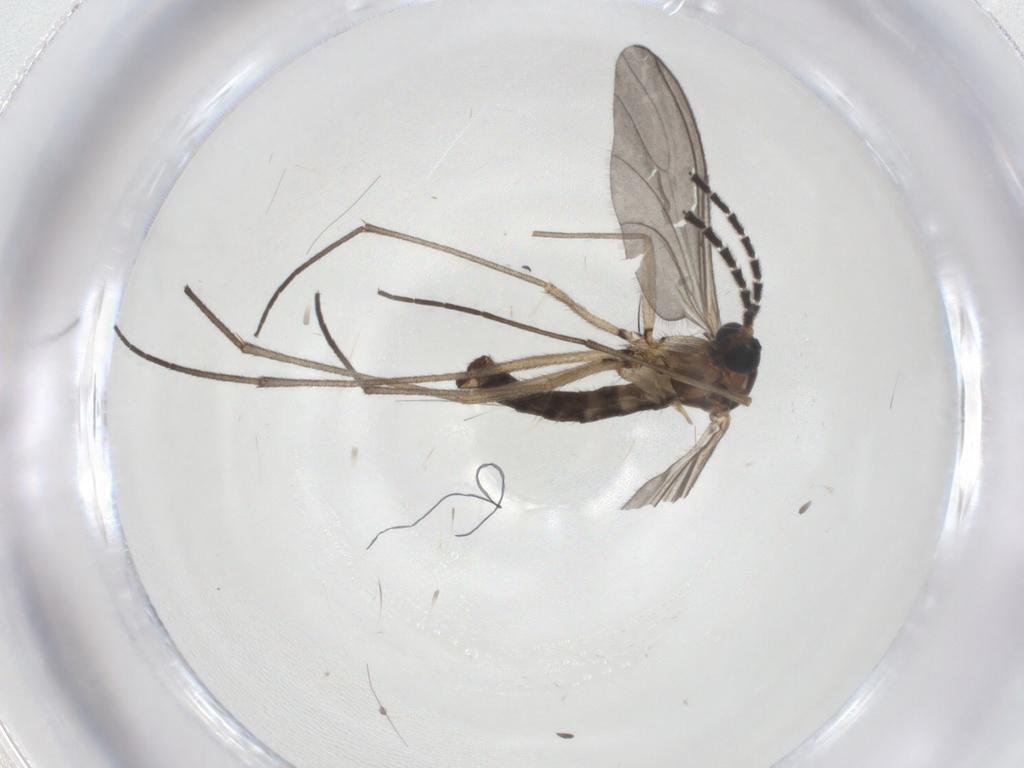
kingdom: Animalia
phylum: Arthropoda
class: Insecta
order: Diptera
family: Sciaridae
